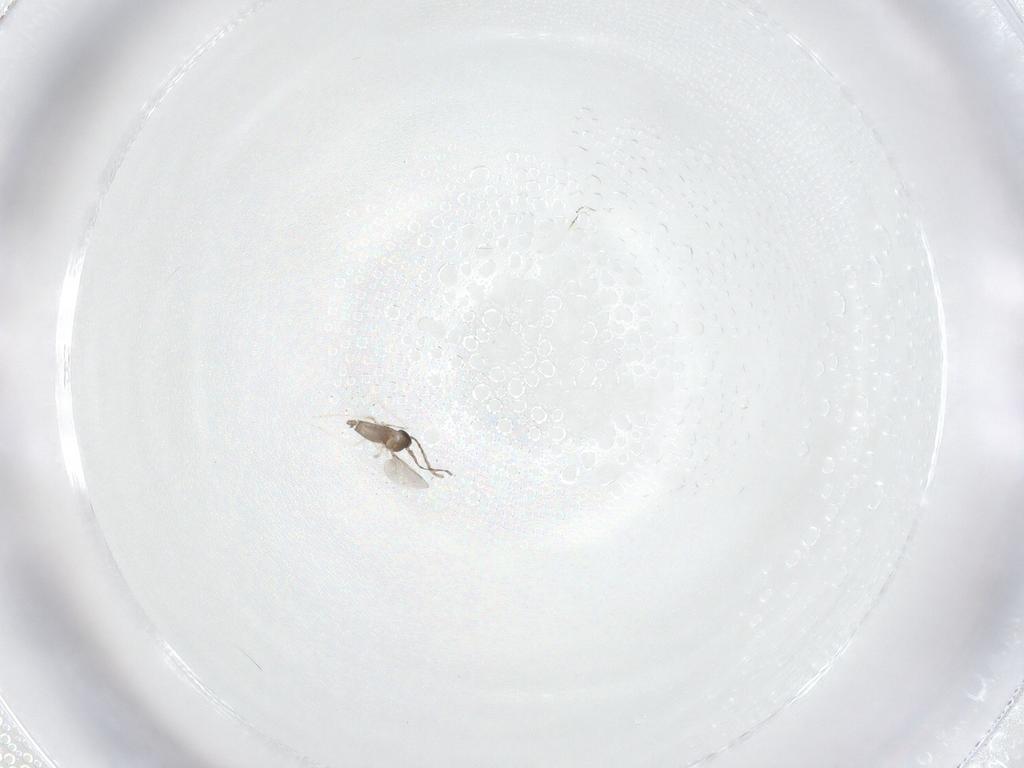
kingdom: Animalia
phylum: Arthropoda
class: Insecta
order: Diptera
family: Cecidomyiidae
